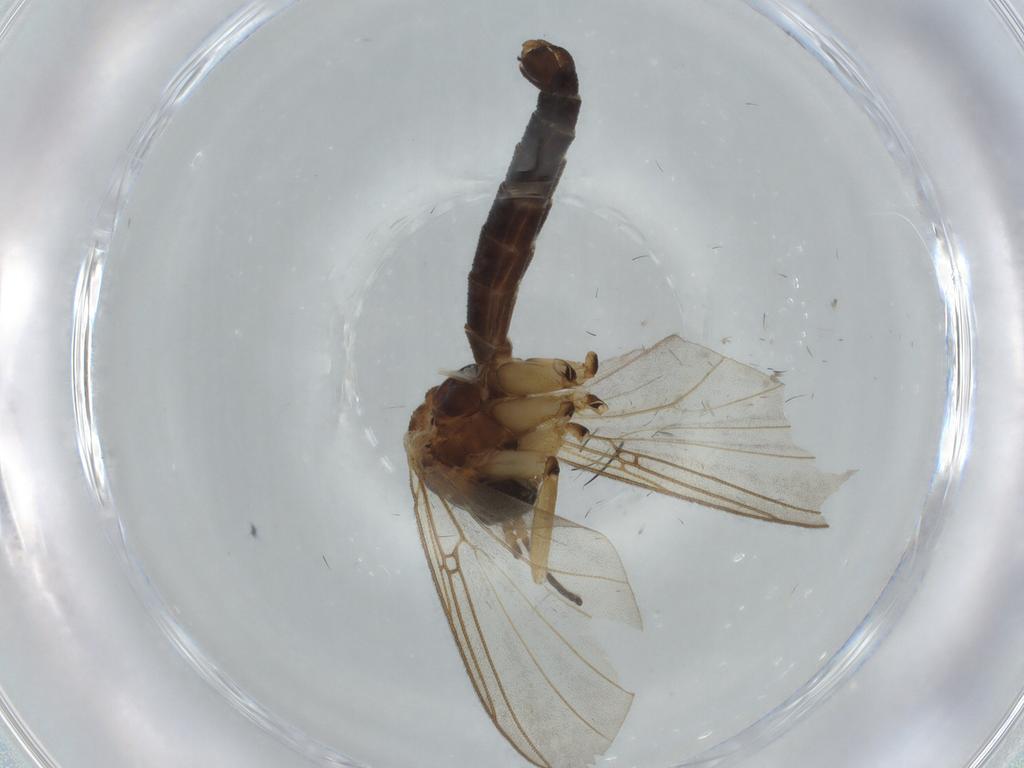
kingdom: Animalia
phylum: Arthropoda
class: Insecta
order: Diptera
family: Hybotidae
